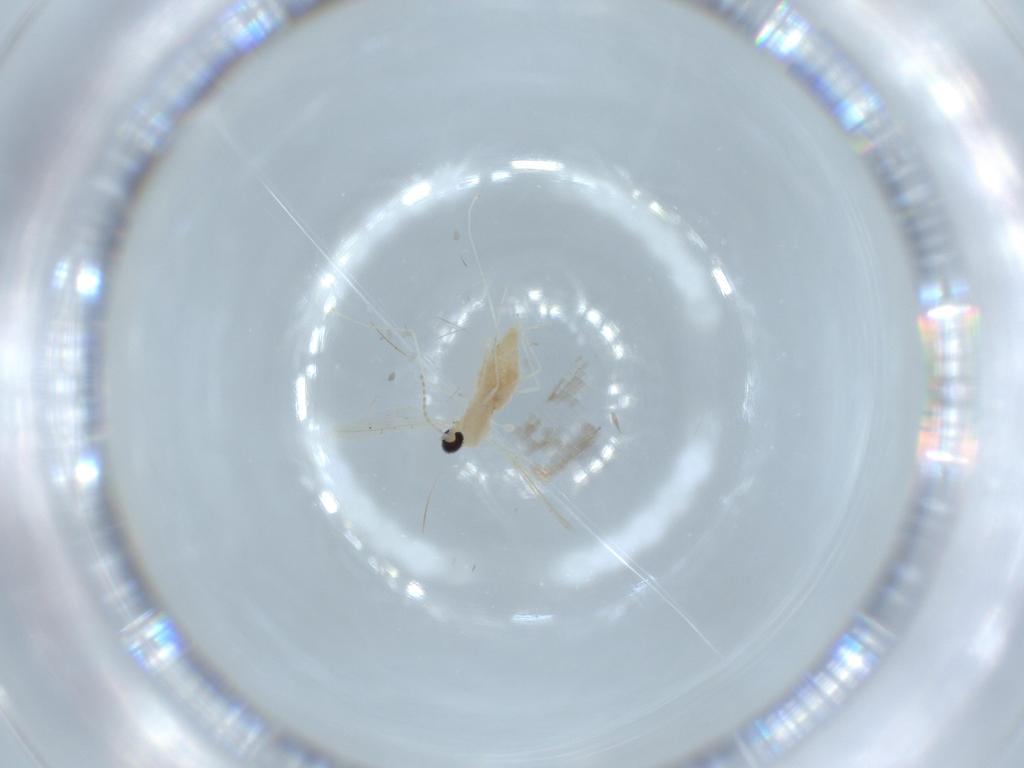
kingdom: Animalia
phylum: Arthropoda
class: Insecta
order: Diptera
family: Cecidomyiidae
